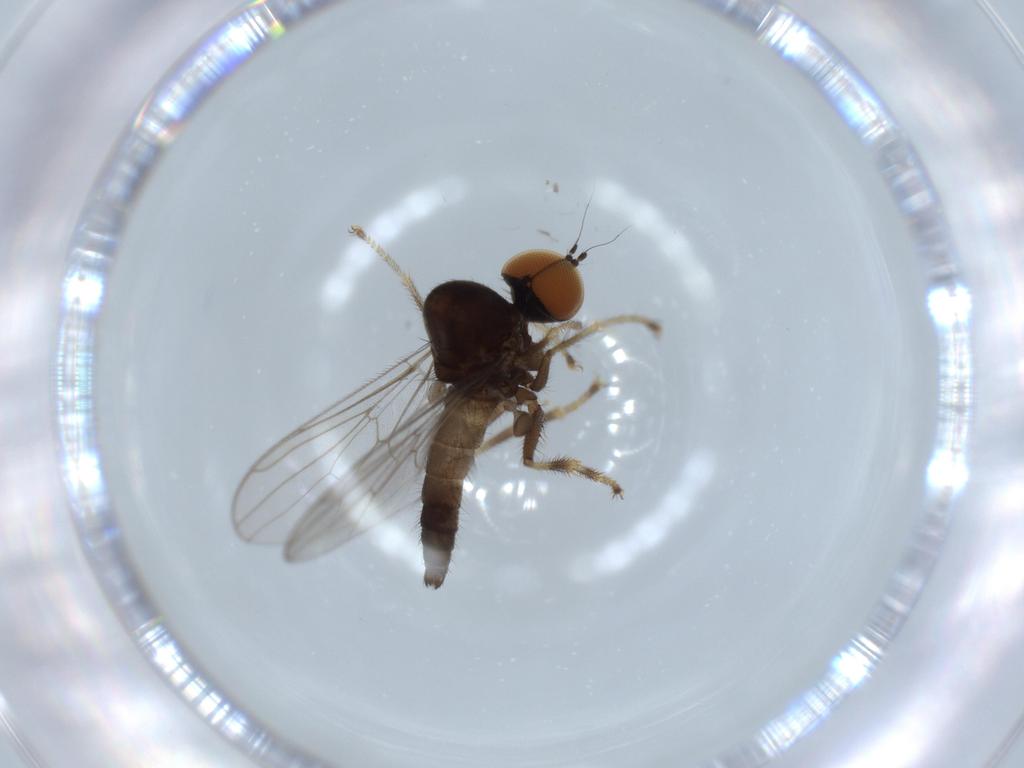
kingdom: Animalia
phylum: Arthropoda
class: Insecta
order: Diptera
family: Hybotidae
